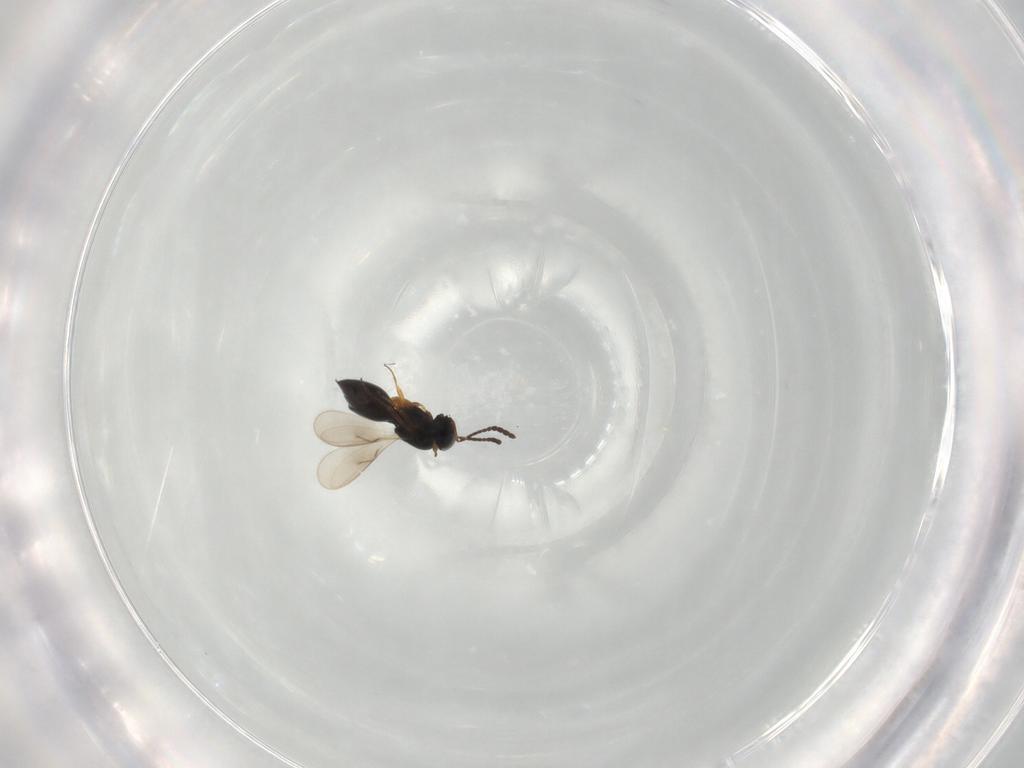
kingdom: Animalia
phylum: Arthropoda
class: Insecta
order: Hymenoptera
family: Scelionidae
